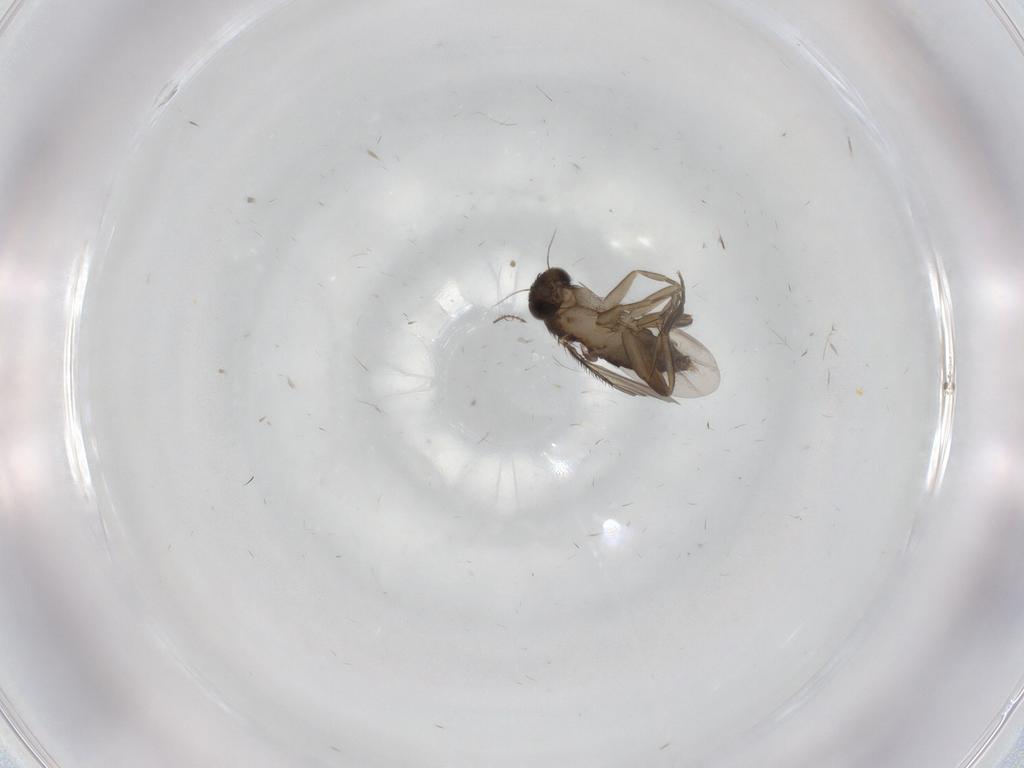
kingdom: Animalia
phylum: Arthropoda
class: Insecta
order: Diptera
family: Phoridae
